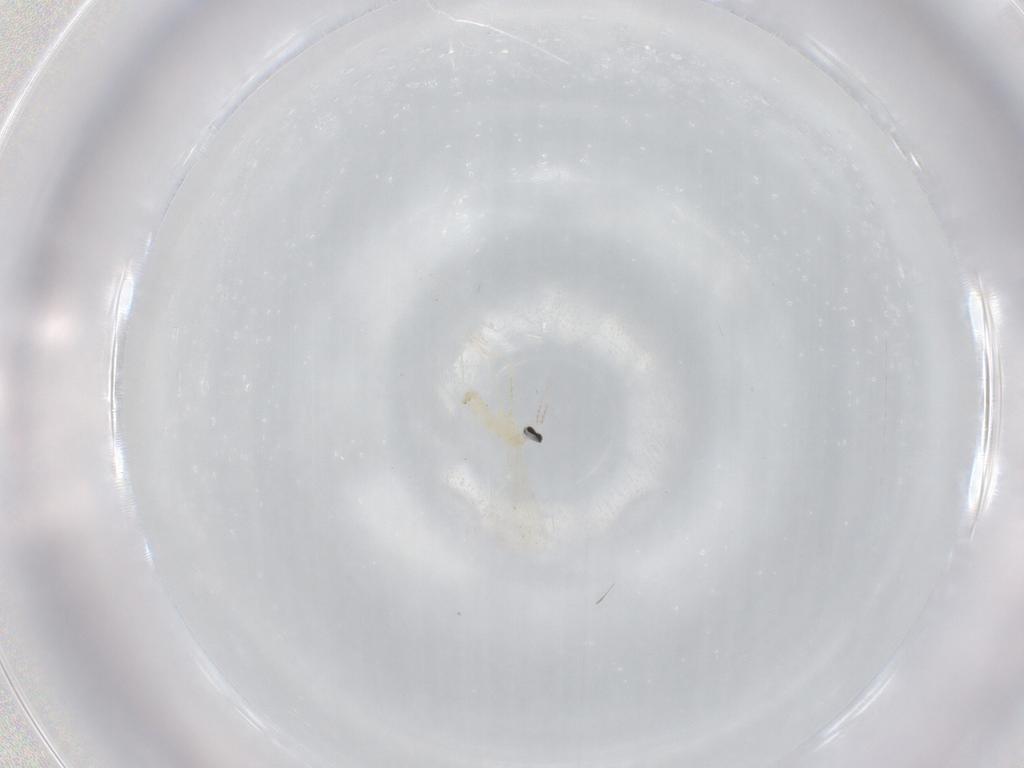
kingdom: Animalia
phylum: Arthropoda
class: Insecta
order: Diptera
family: Cecidomyiidae
